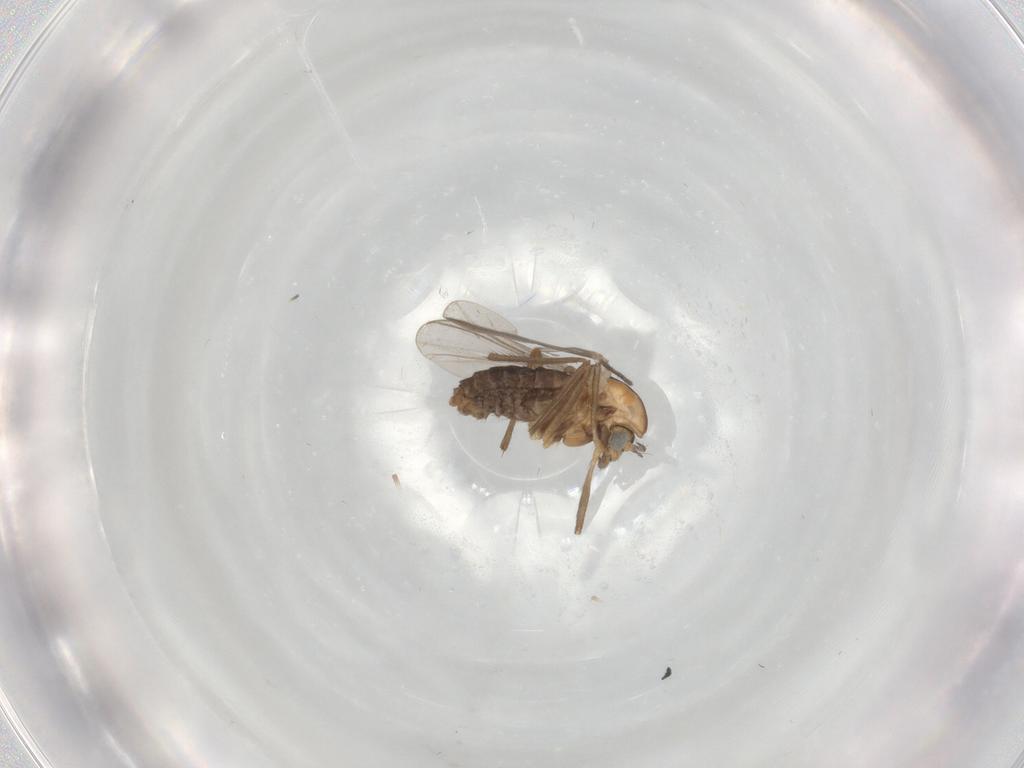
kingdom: Animalia
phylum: Arthropoda
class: Insecta
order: Diptera
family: Chironomidae
